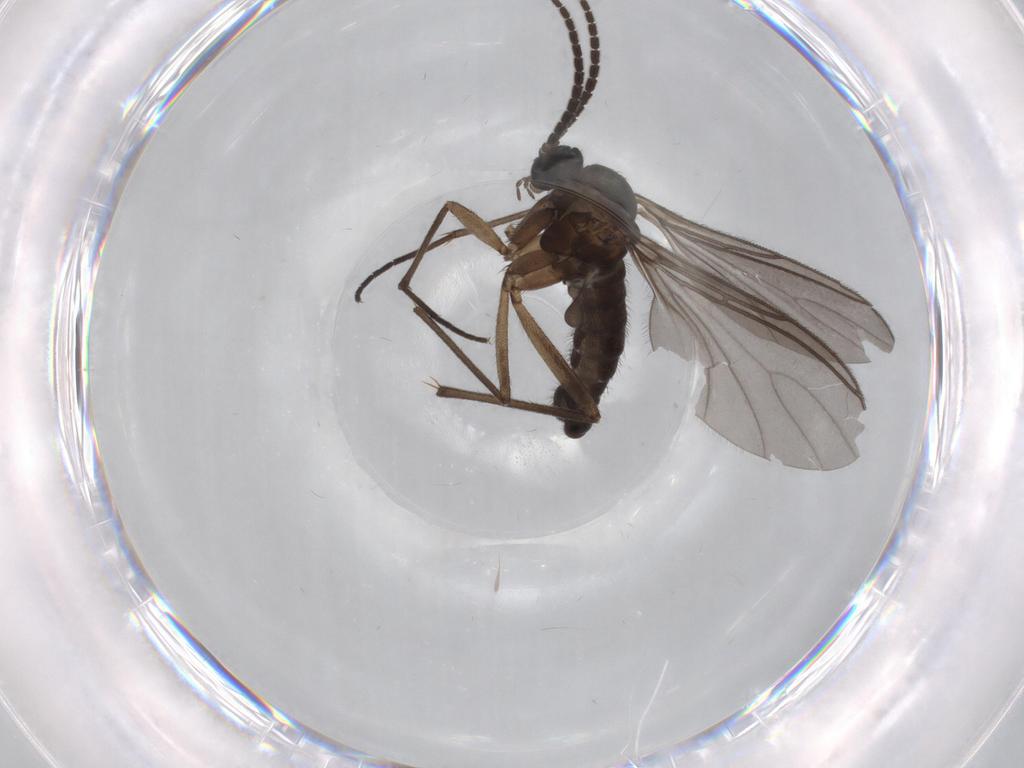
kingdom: Animalia
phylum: Arthropoda
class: Insecta
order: Diptera
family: Sciaridae
